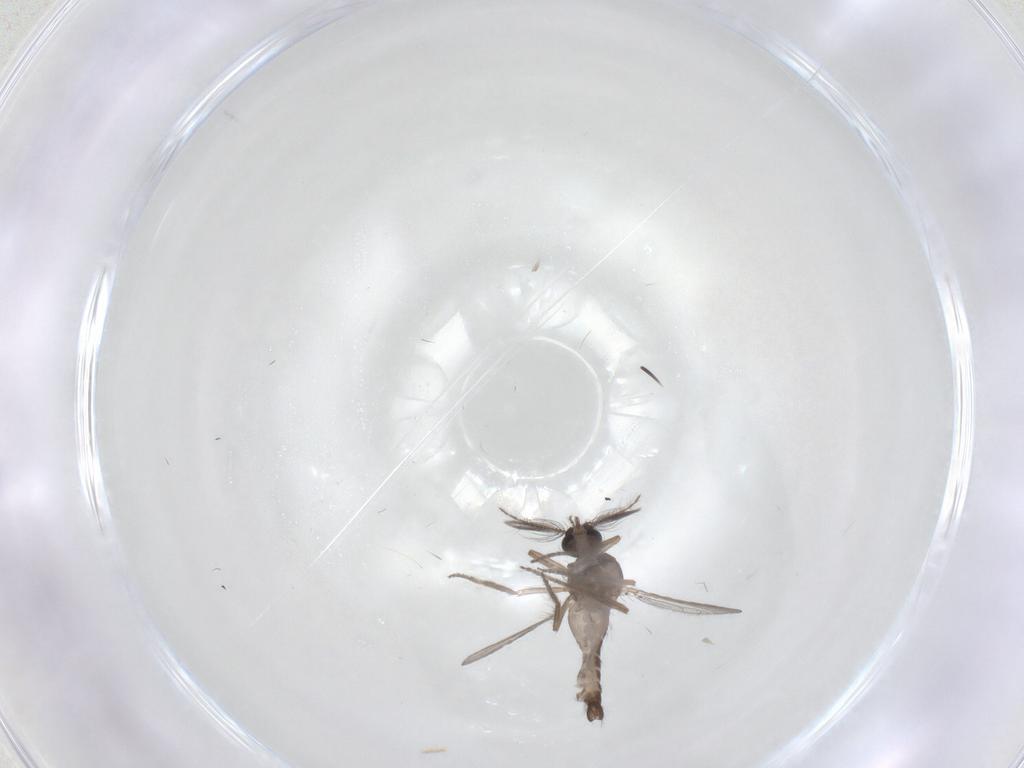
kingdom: Animalia
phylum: Arthropoda
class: Insecta
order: Diptera
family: Ceratopogonidae
